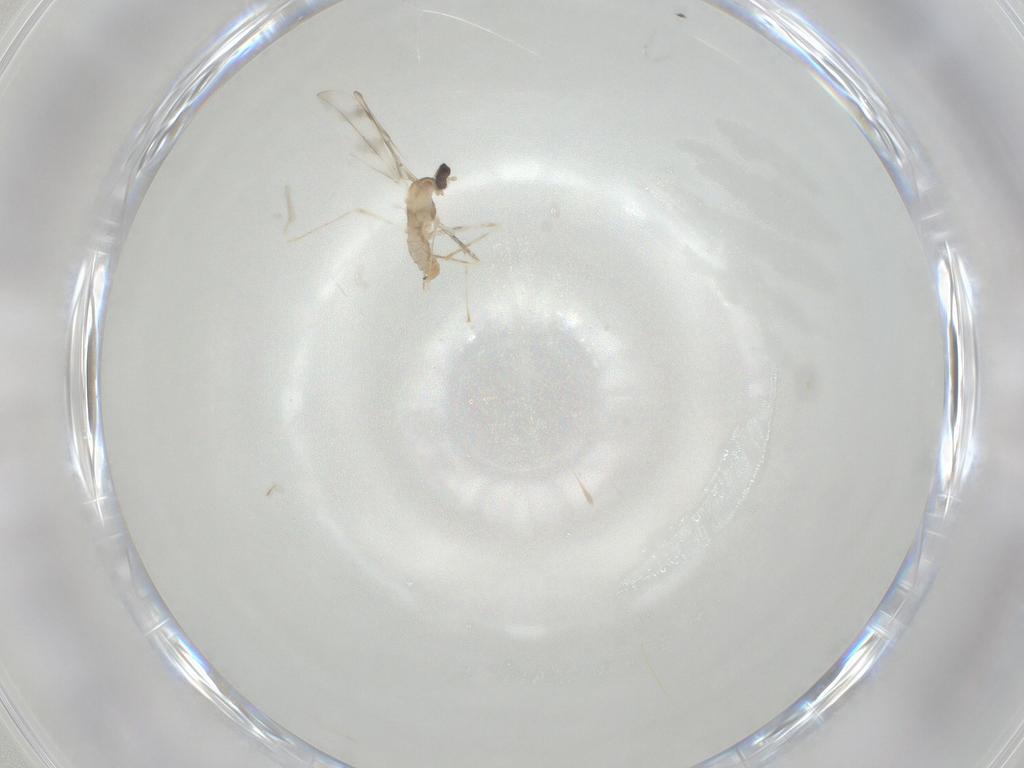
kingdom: Animalia
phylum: Arthropoda
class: Insecta
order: Diptera
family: Cecidomyiidae
